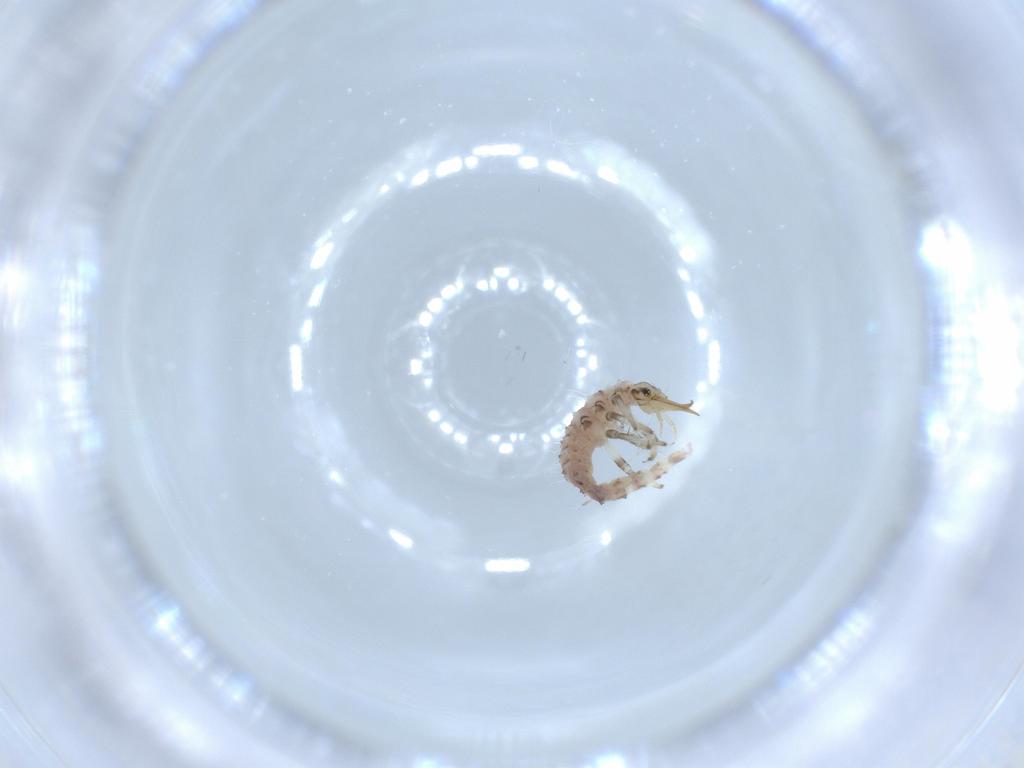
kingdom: Animalia
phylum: Arthropoda
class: Insecta
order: Neuroptera
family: Chrysopidae
